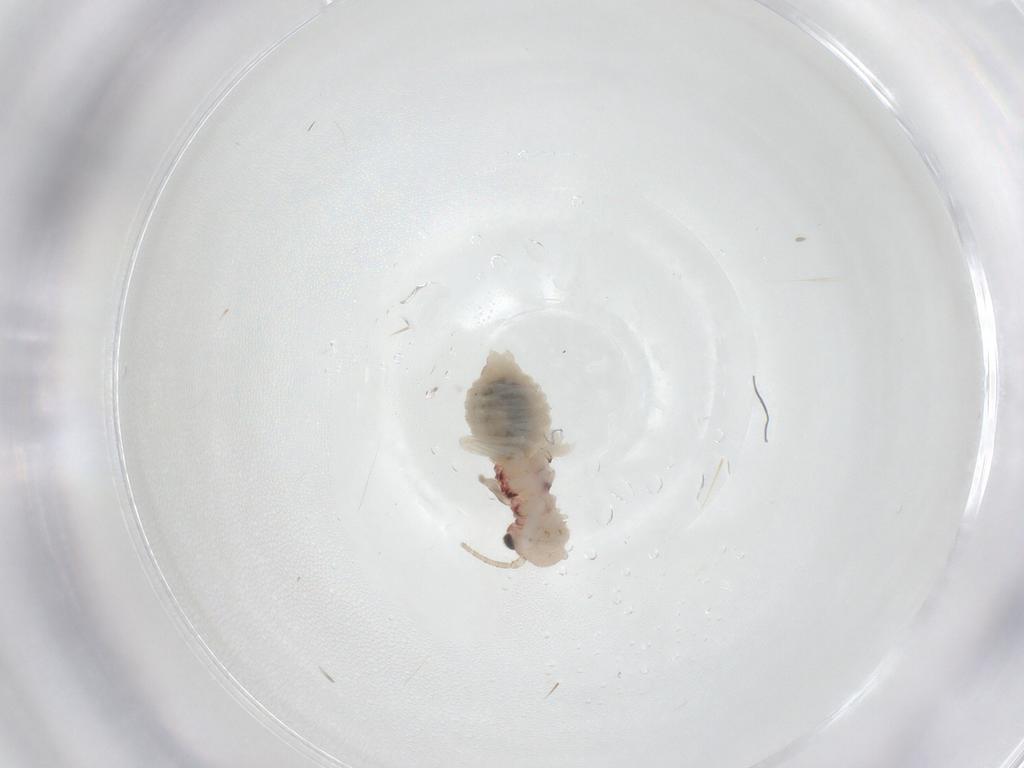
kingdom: Animalia
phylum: Arthropoda
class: Insecta
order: Psocodea
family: Amphipsocidae
